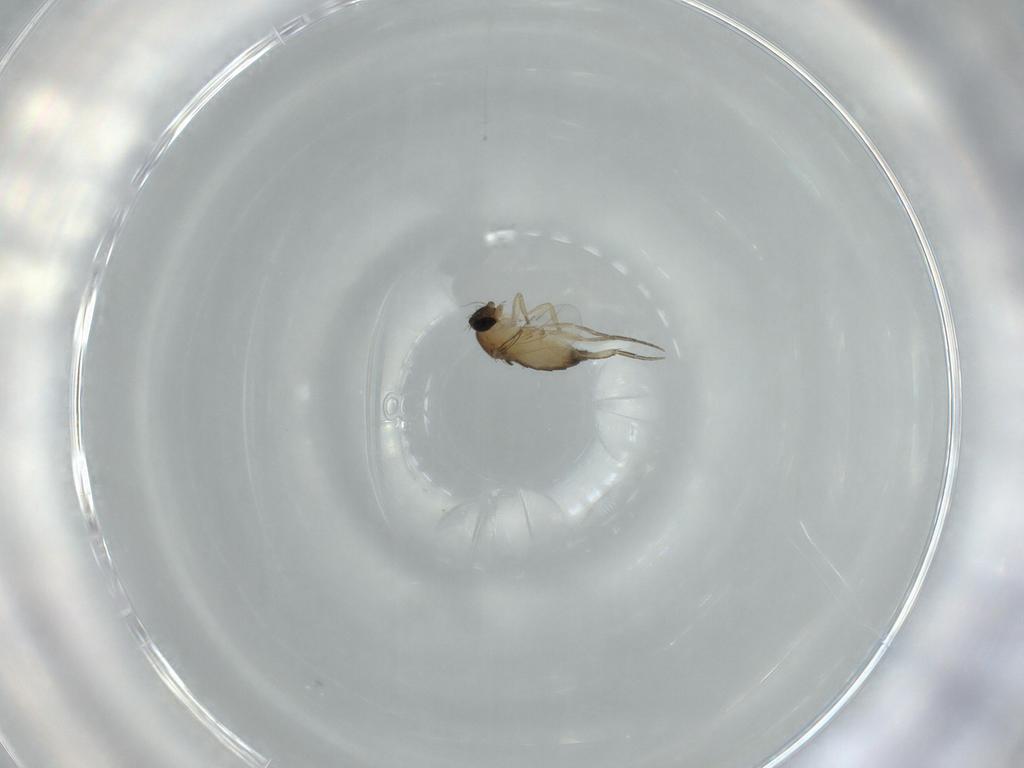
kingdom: Animalia
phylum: Arthropoda
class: Insecta
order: Diptera
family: Phoridae
